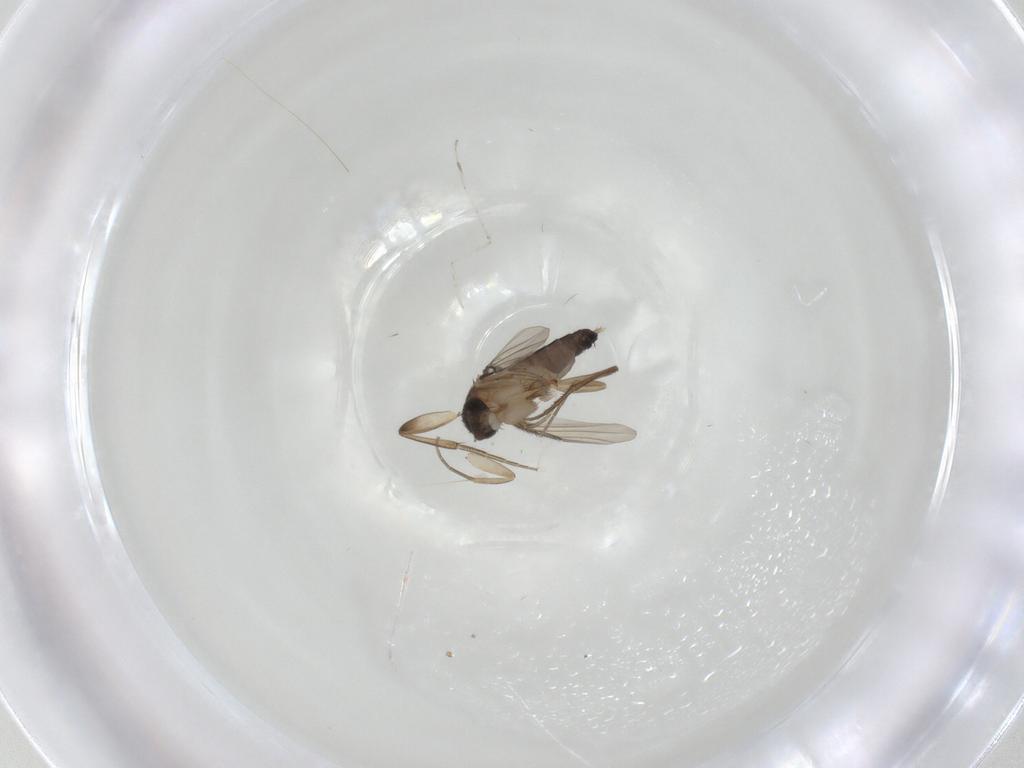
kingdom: Animalia
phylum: Arthropoda
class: Insecta
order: Diptera
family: Phoridae
